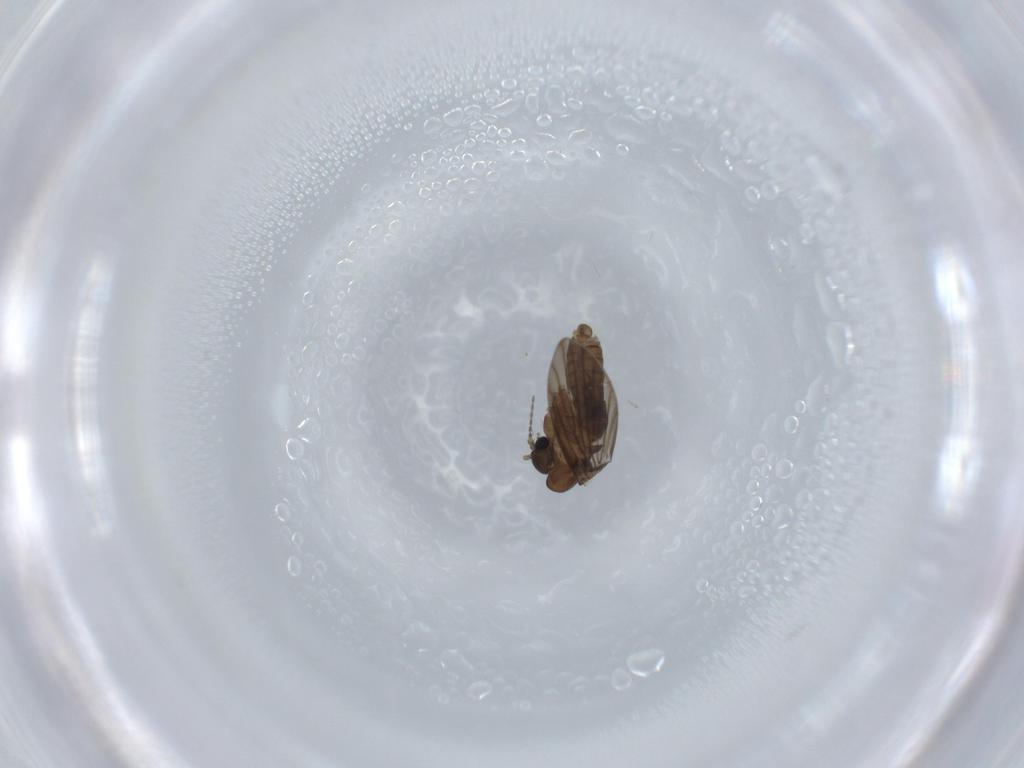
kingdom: Animalia
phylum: Arthropoda
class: Insecta
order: Diptera
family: Psychodidae
